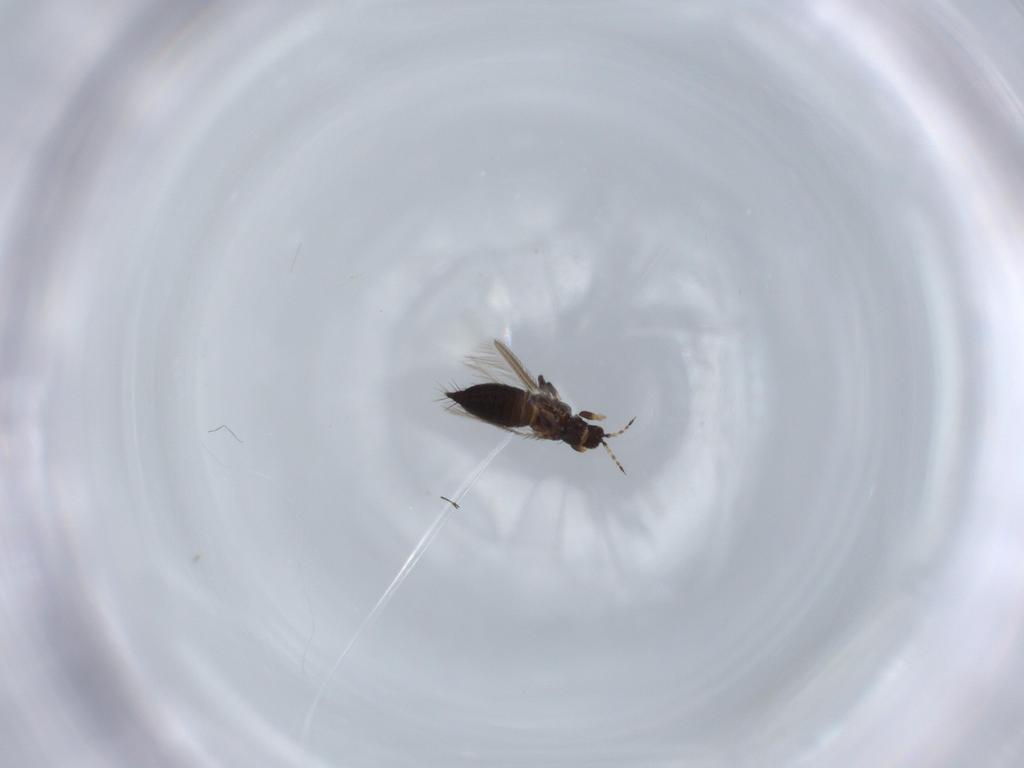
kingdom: Animalia
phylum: Arthropoda
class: Insecta
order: Thysanoptera
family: Thripidae
